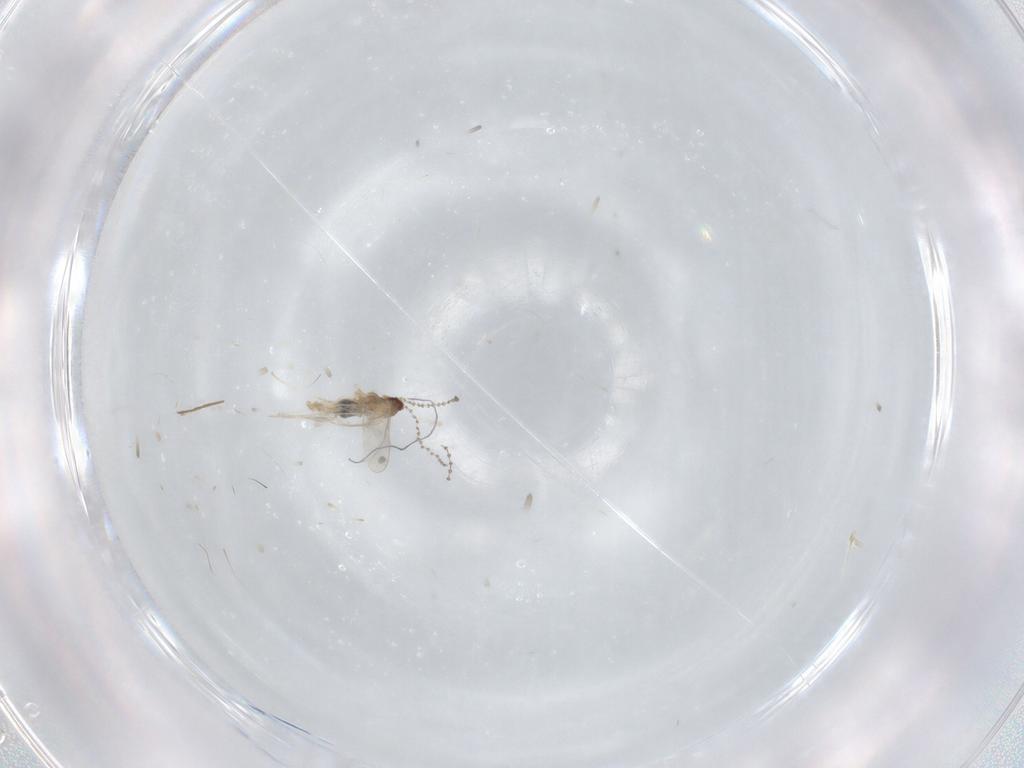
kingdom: Animalia
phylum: Arthropoda
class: Insecta
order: Diptera
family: Cecidomyiidae
